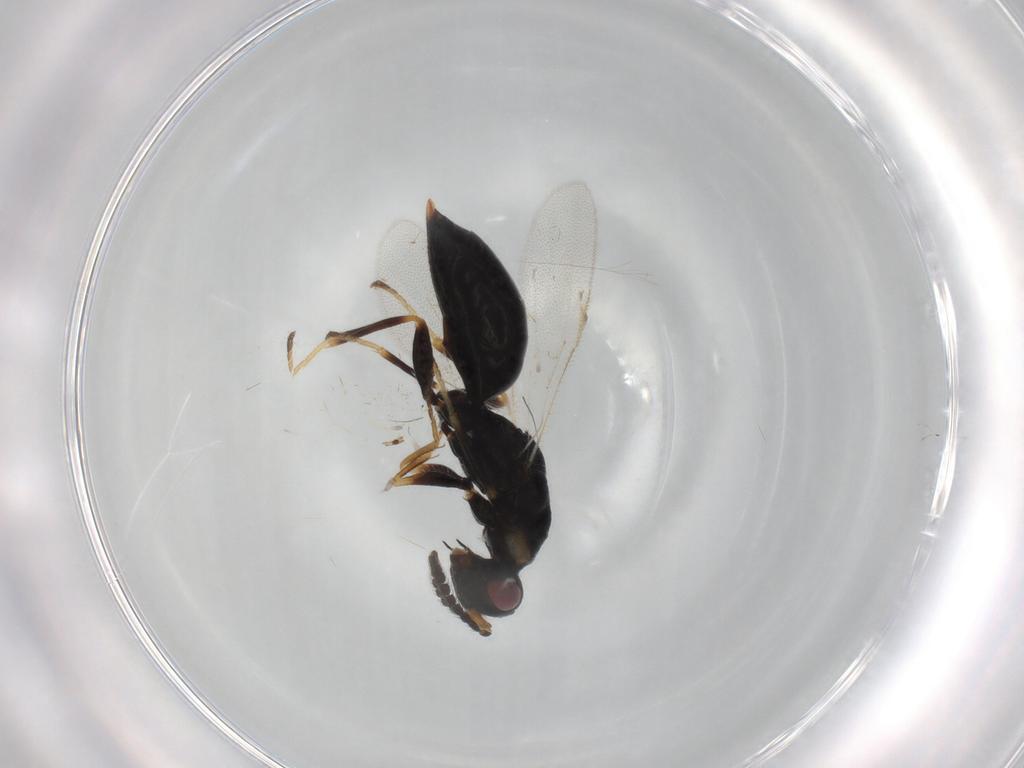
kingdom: Animalia
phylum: Arthropoda
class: Insecta
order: Hymenoptera
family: Eurytomidae
